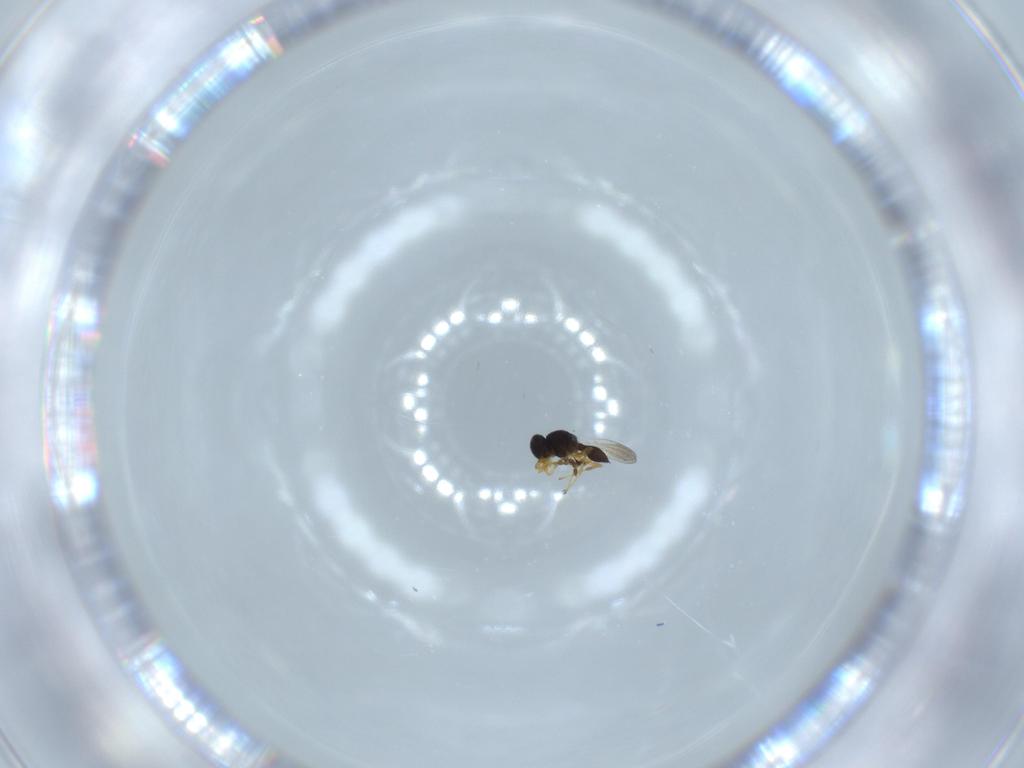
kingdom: Animalia
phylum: Arthropoda
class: Insecta
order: Hymenoptera
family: Platygastridae
